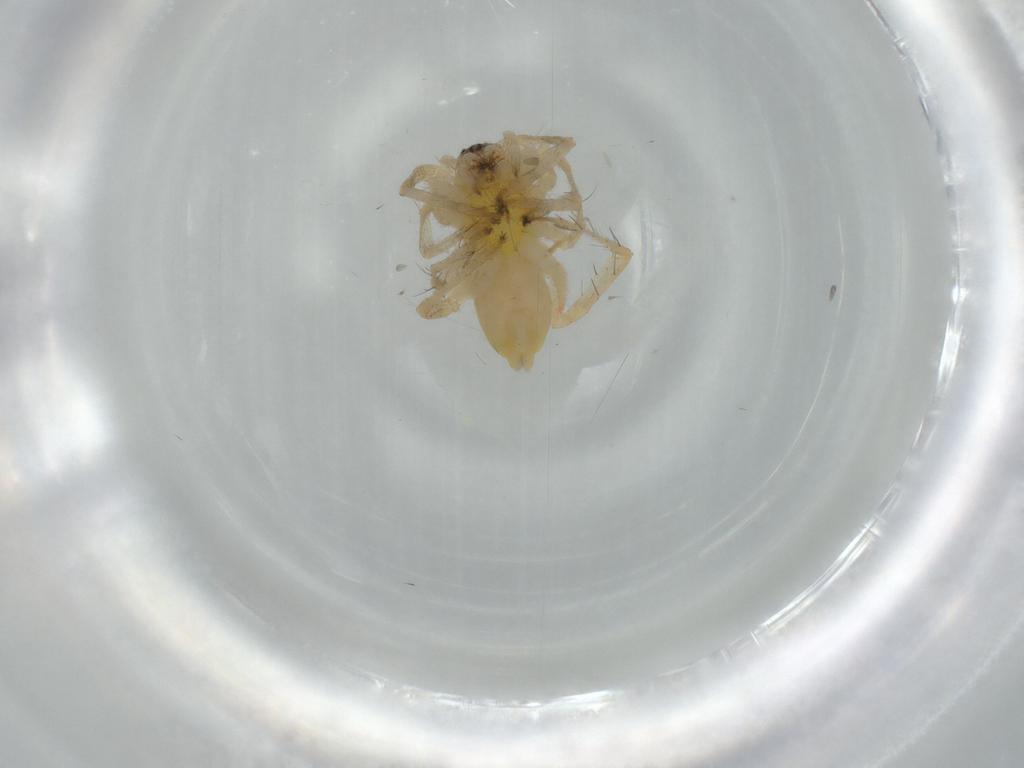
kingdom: Animalia
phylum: Arthropoda
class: Arachnida
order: Araneae
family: Anyphaenidae
